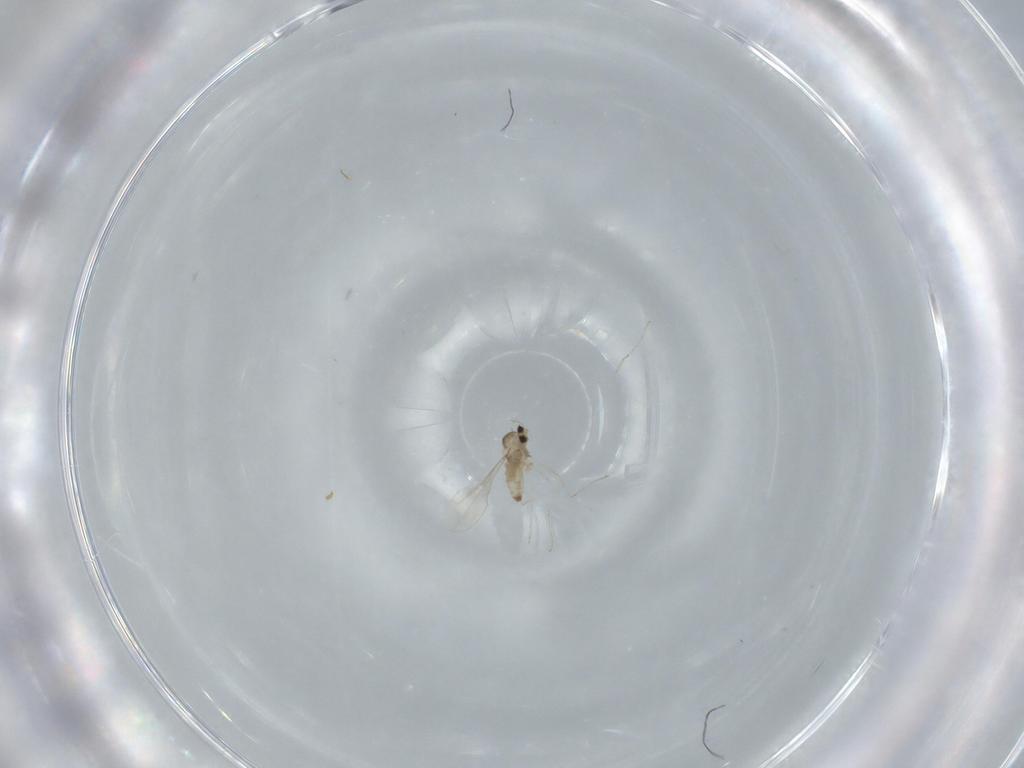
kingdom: Animalia
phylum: Arthropoda
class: Insecta
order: Diptera
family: Cecidomyiidae
